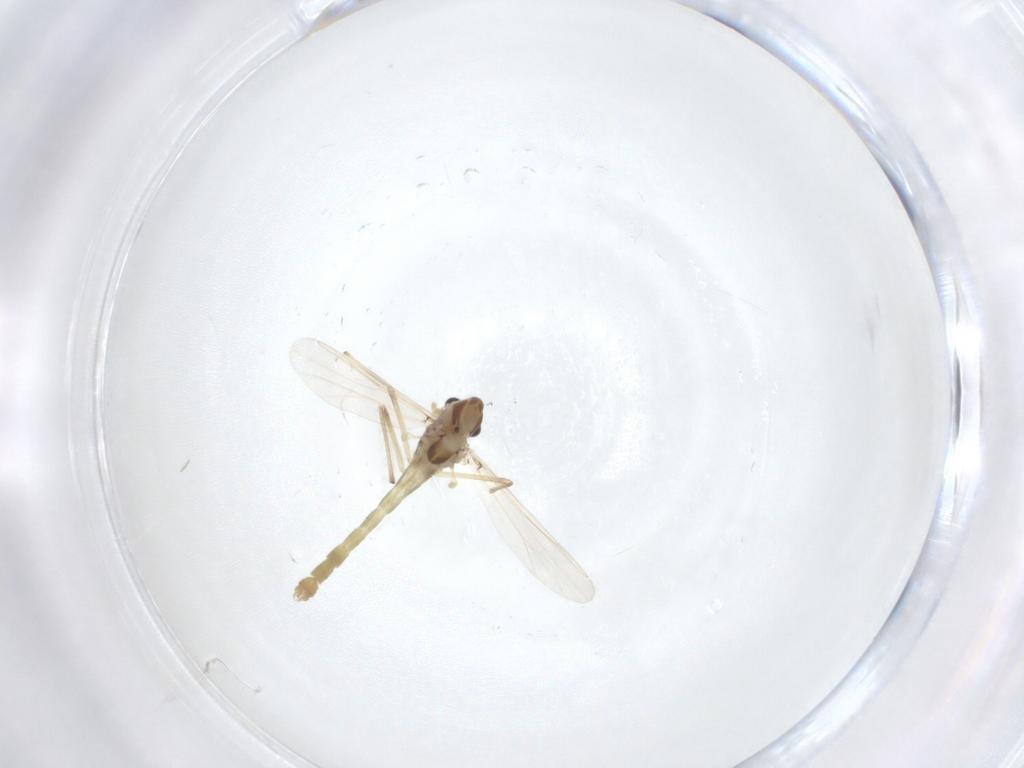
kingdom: Animalia
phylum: Arthropoda
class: Insecta
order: Diptera
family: Chironomidae
